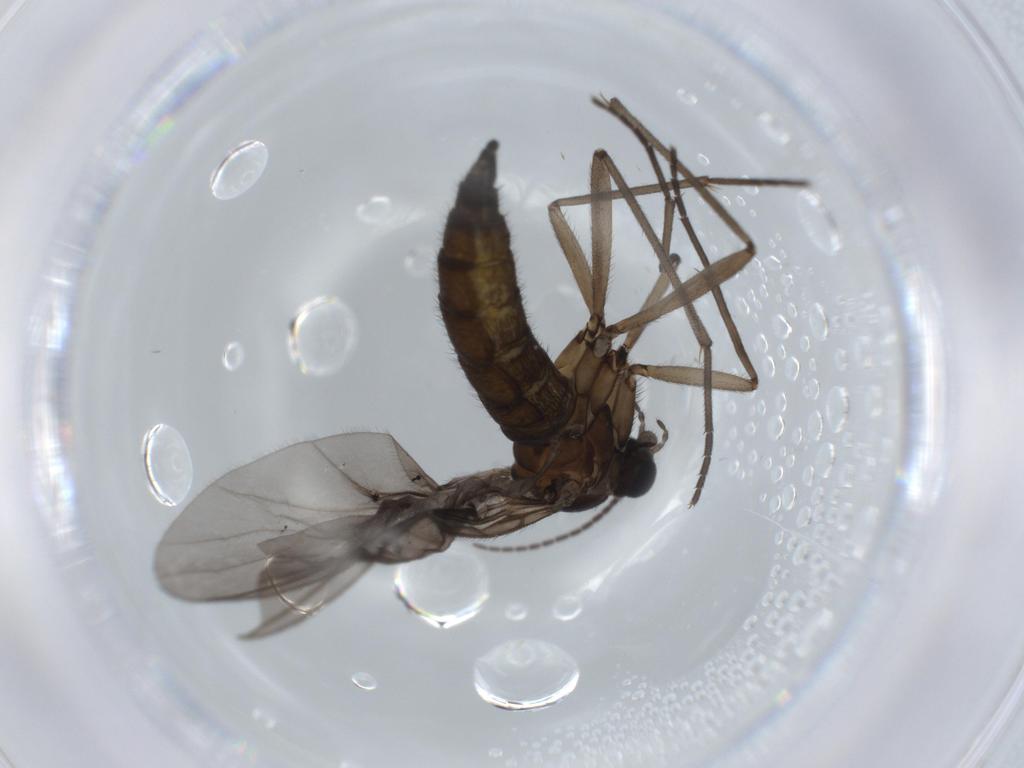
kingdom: Animalia
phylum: Arthropoda
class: Insecta
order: Diptera
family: Sciaridae
